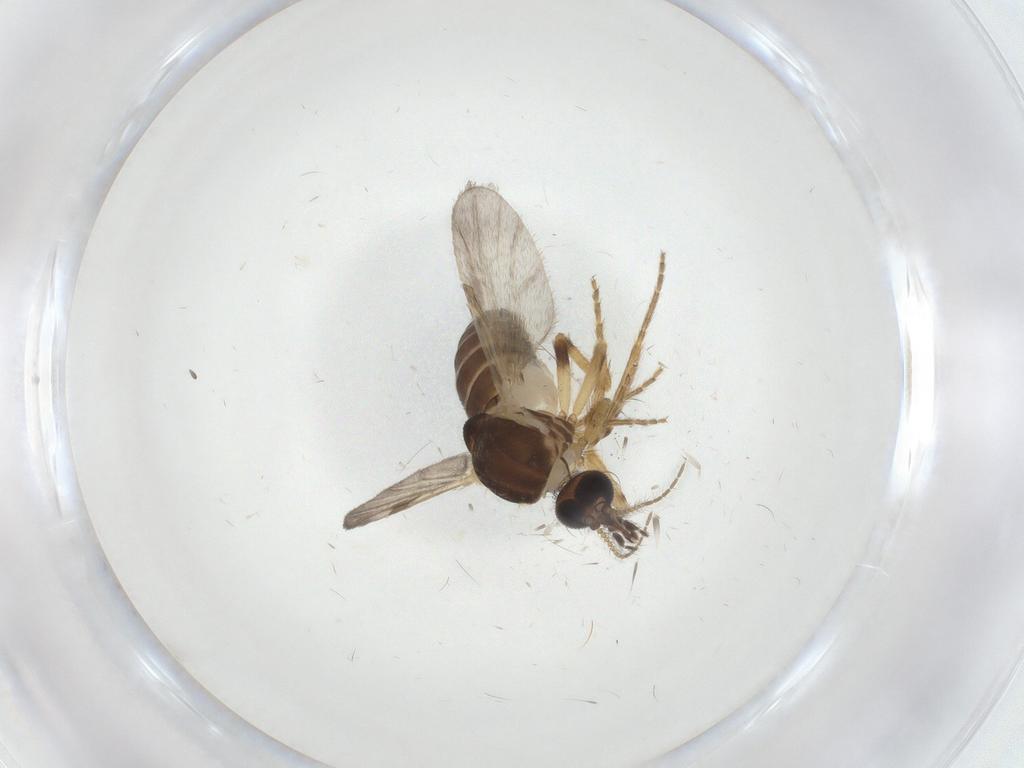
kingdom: Animalia
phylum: Arthropoda
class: Insecta
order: Diptera
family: Ceratopogonidae
